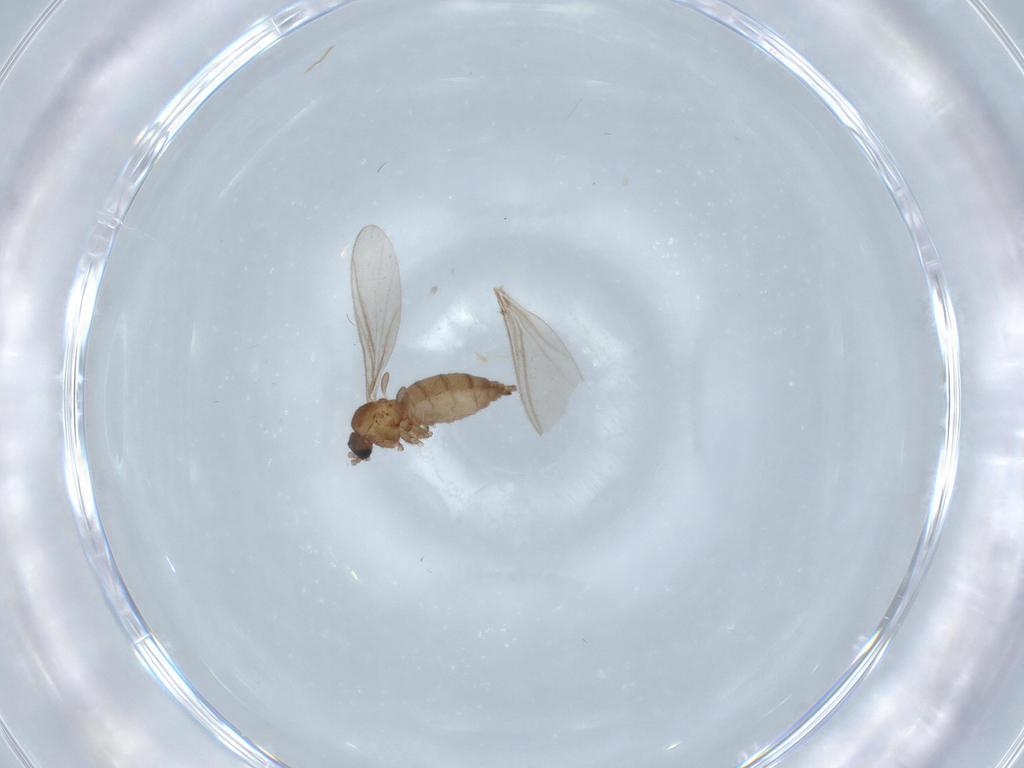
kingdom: Animalia
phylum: Arthropoda
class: Insecta
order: Diptera
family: Sciaridae
